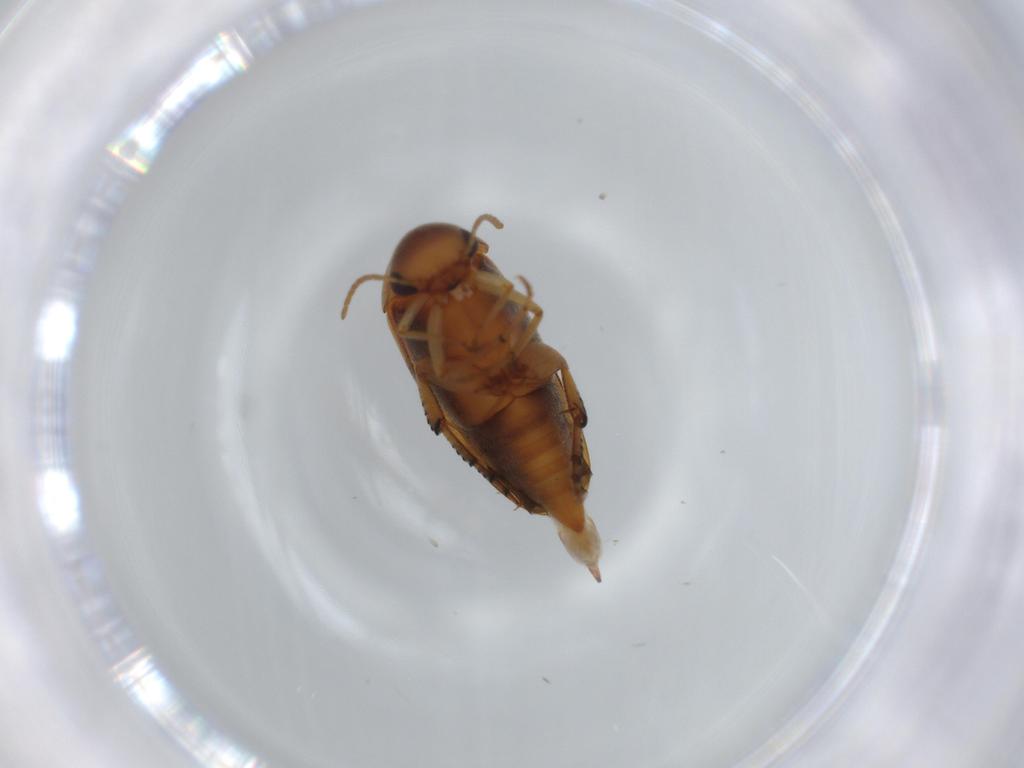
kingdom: Animalia
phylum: Arthropoda
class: Insecta
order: Coleoptera
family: Mordellidae
